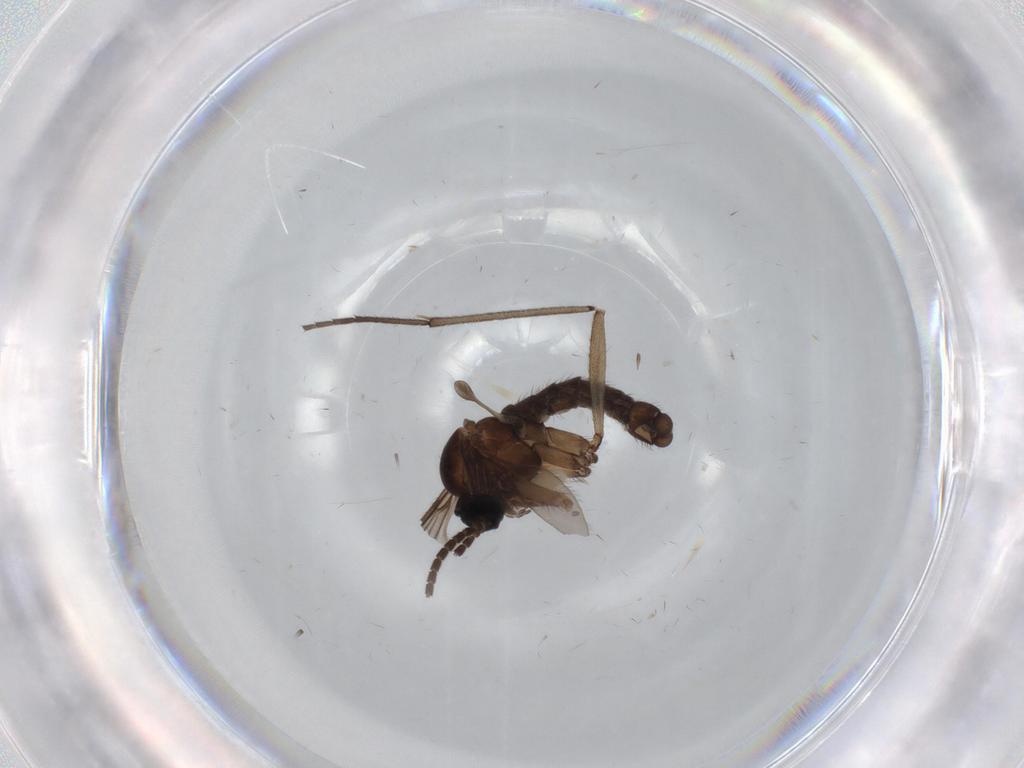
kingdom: Animalia
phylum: Arthropoda
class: Insecta
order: Diptera
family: Sciaridae
